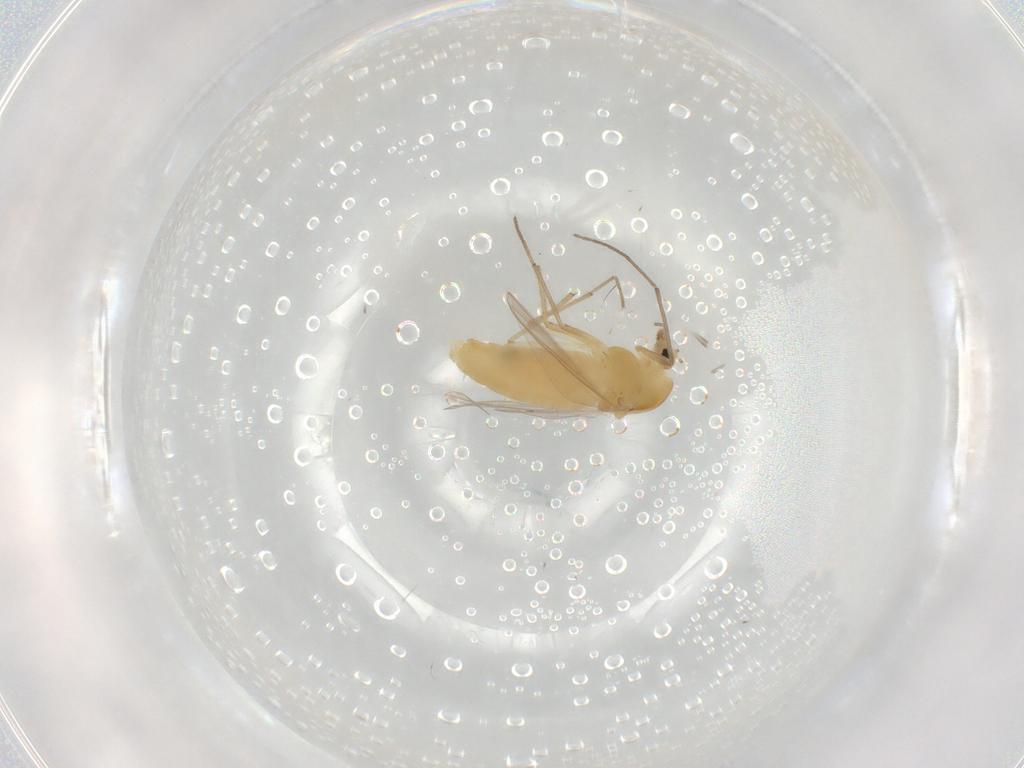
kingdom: Animalia
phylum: Arthropoda
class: Insecta
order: Diptera
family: Chironomidae
